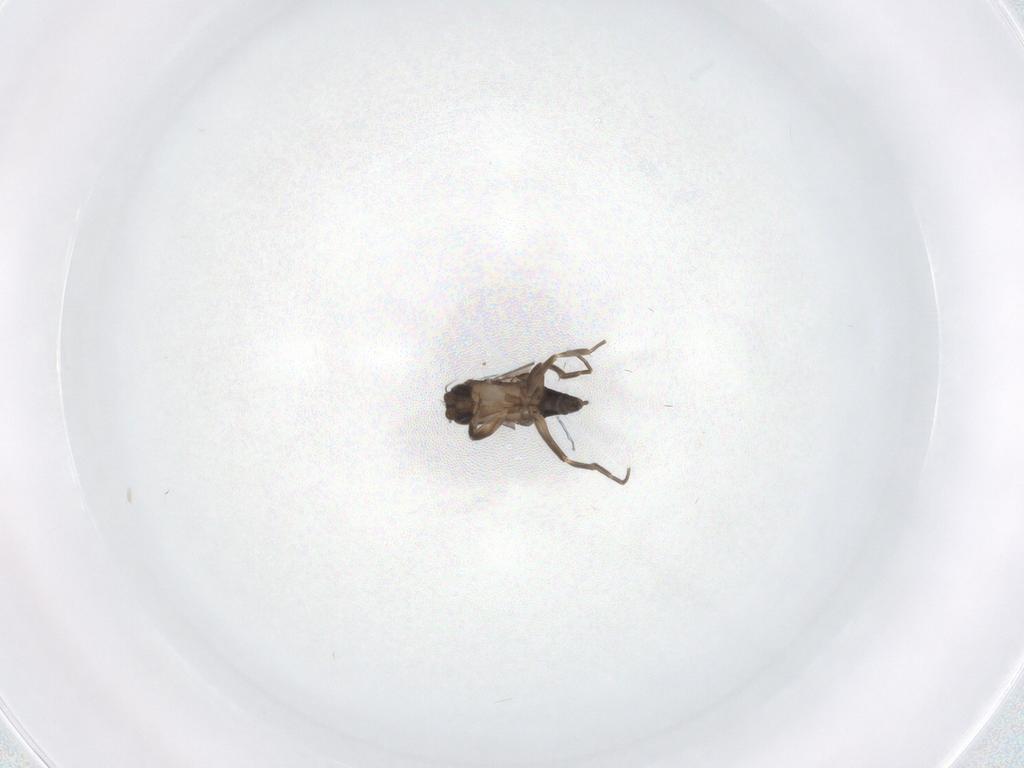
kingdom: Animalia
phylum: Arthropoda
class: Insecta
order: Diptera
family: Phoridae
